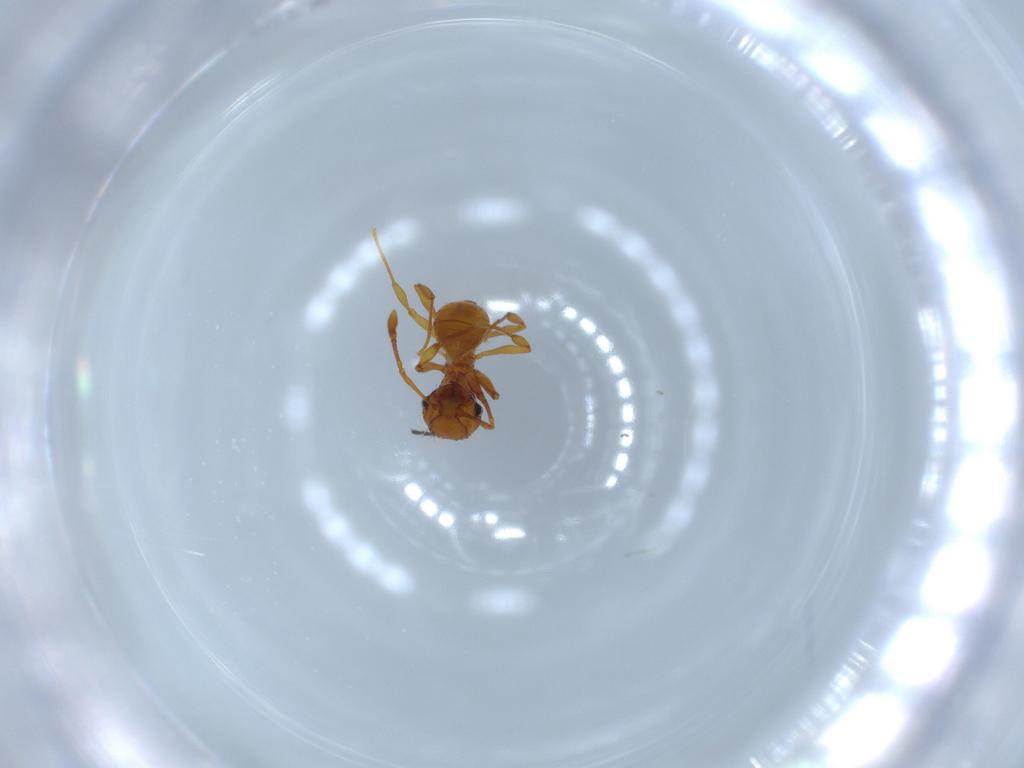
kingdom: Animalia
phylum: Arthropoda
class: Insecta
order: Hymenoptera
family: Formicidae
